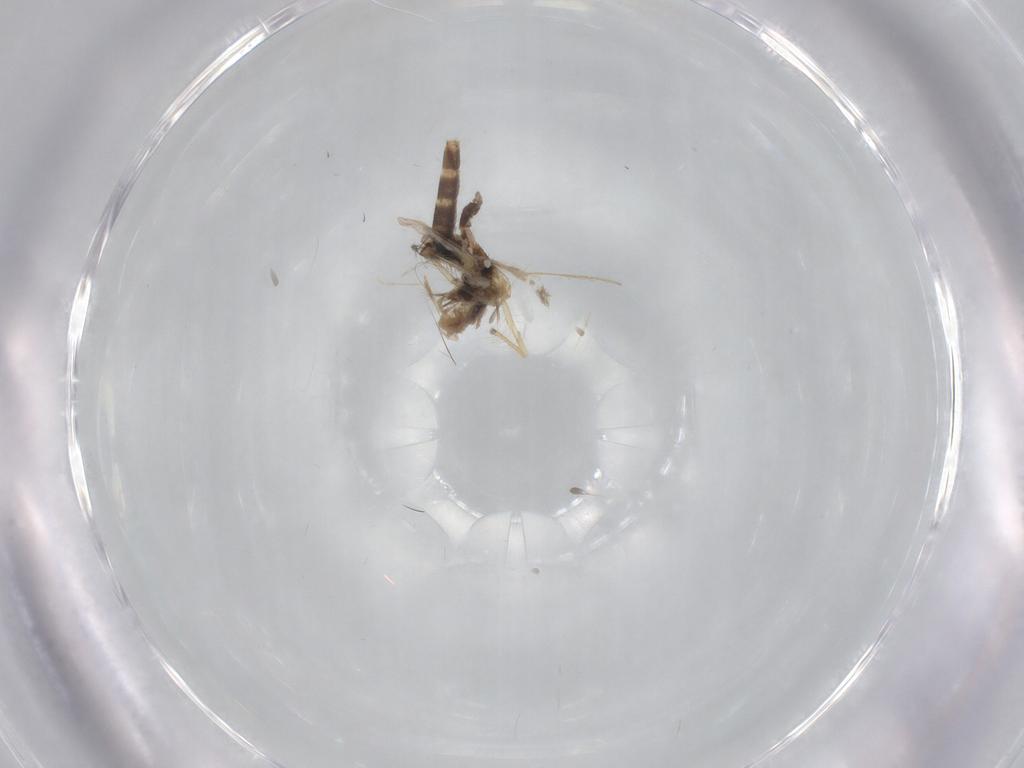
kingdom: Animalia
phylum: Arthropoda
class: Insecta
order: Diptera
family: Chironomidae
